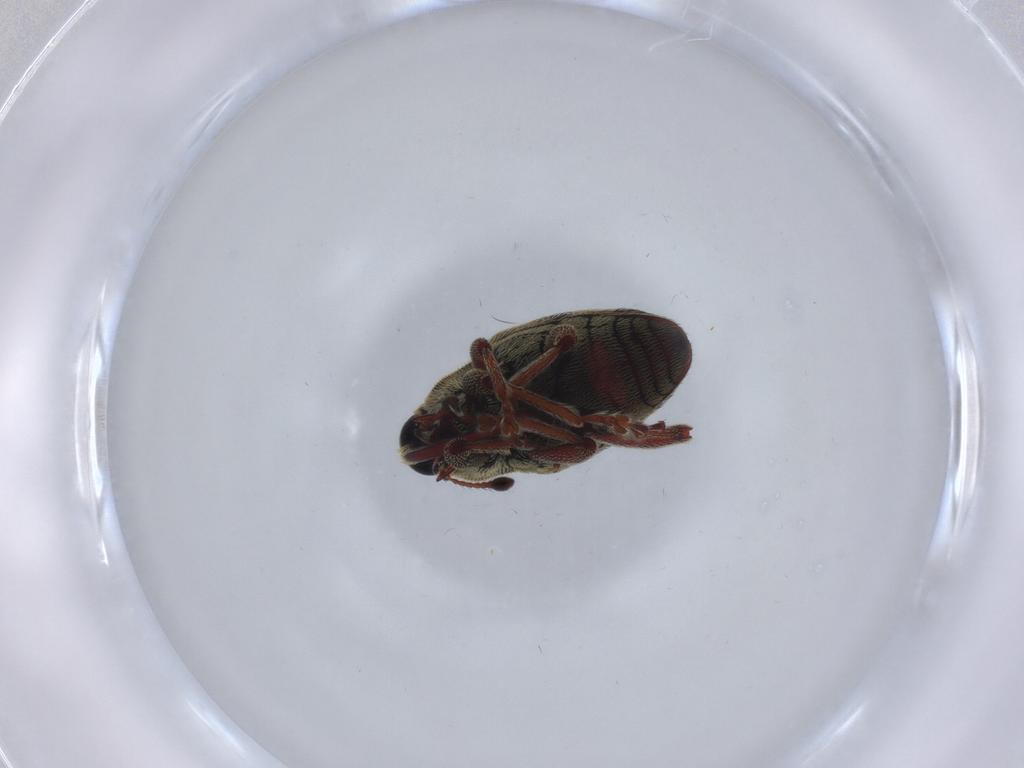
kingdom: Animalia
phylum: Arthropoda
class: Insecta
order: Coleoptera
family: Curculionidae
